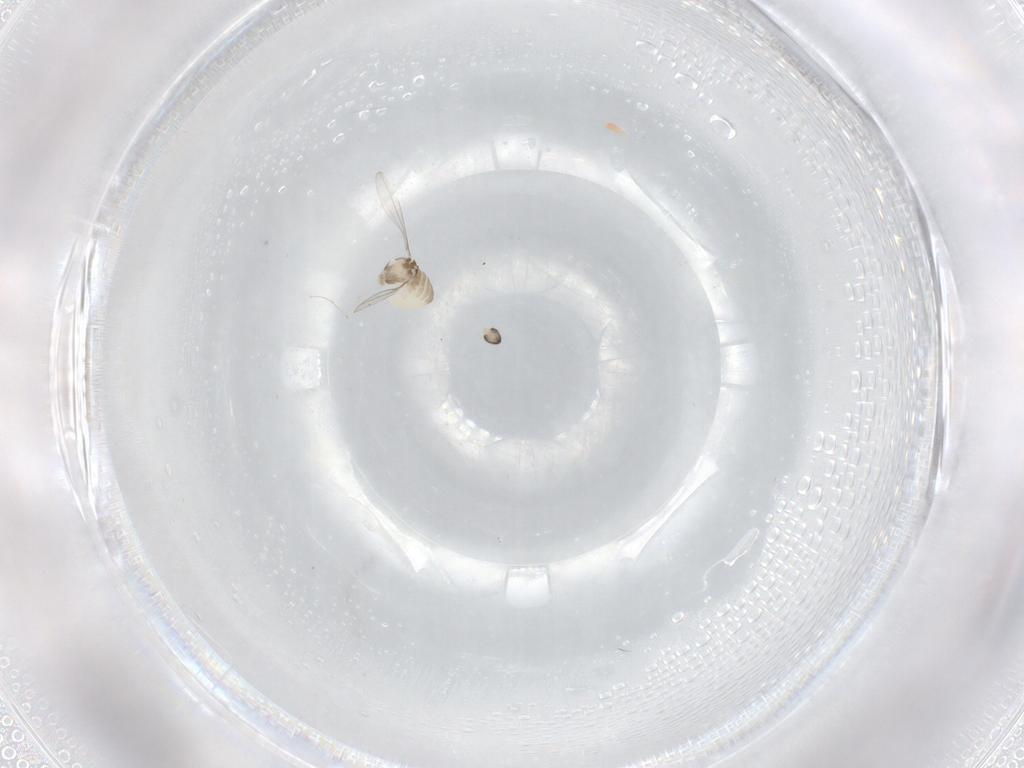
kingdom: Animalia
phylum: Arthropoda
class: Insecta
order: Diptera
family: Cecidomyiidae
